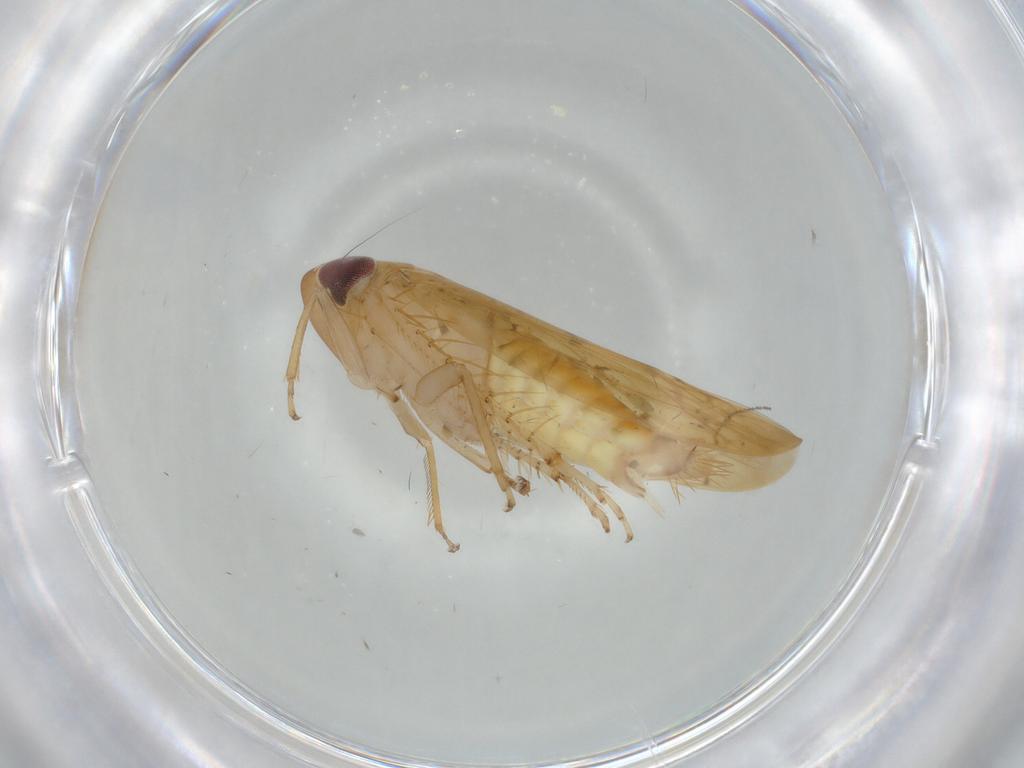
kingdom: Animalia
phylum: Arthropoda
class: Insecta
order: Hemiptera
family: Cicadellidae
